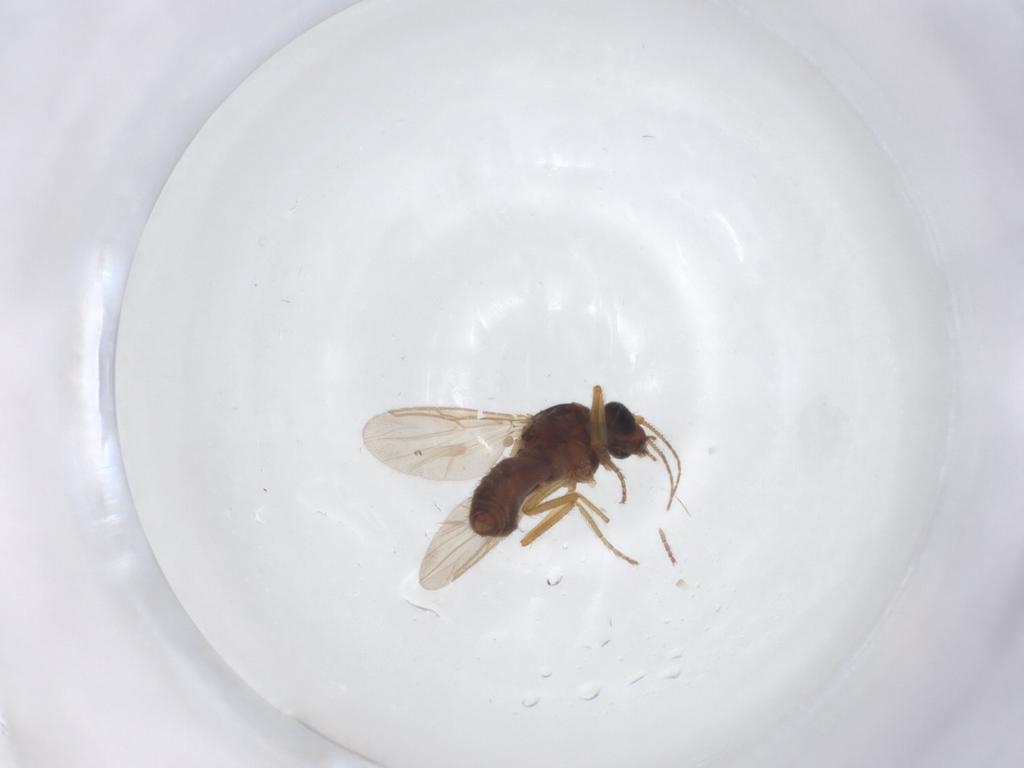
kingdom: Animalia
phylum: Arthropoda
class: Insecta
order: Diptera
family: Ceratopogonidae
